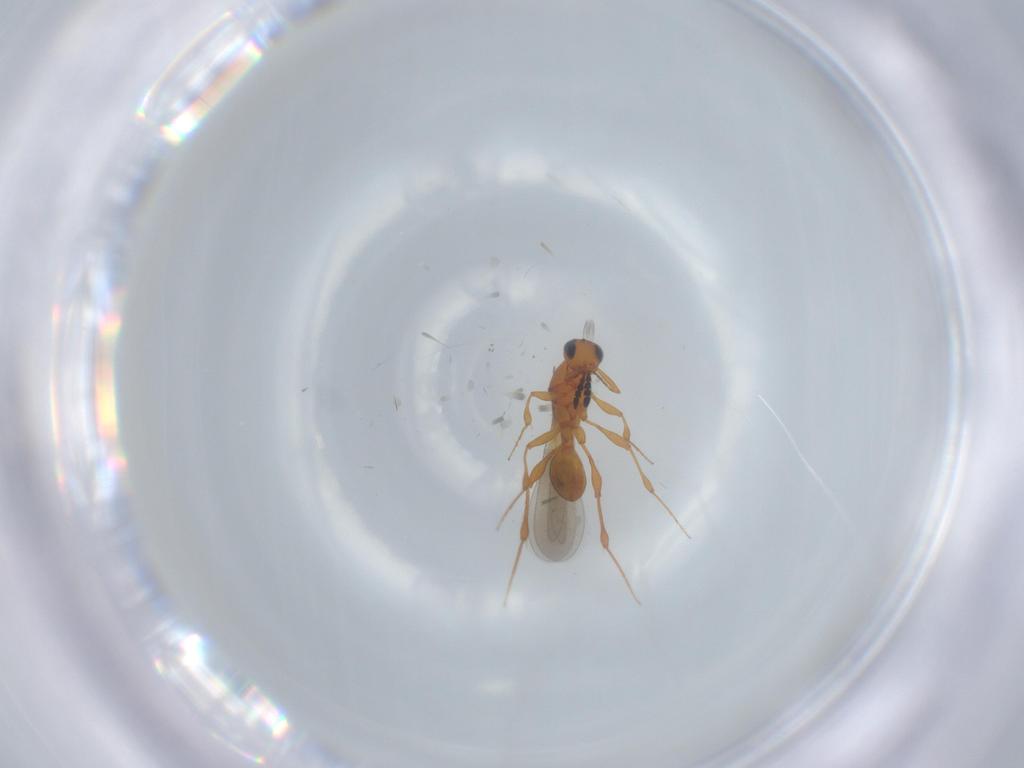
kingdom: Animalia
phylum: Arthropoda
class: Insecta
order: Hymenoptera
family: Platygastridae
